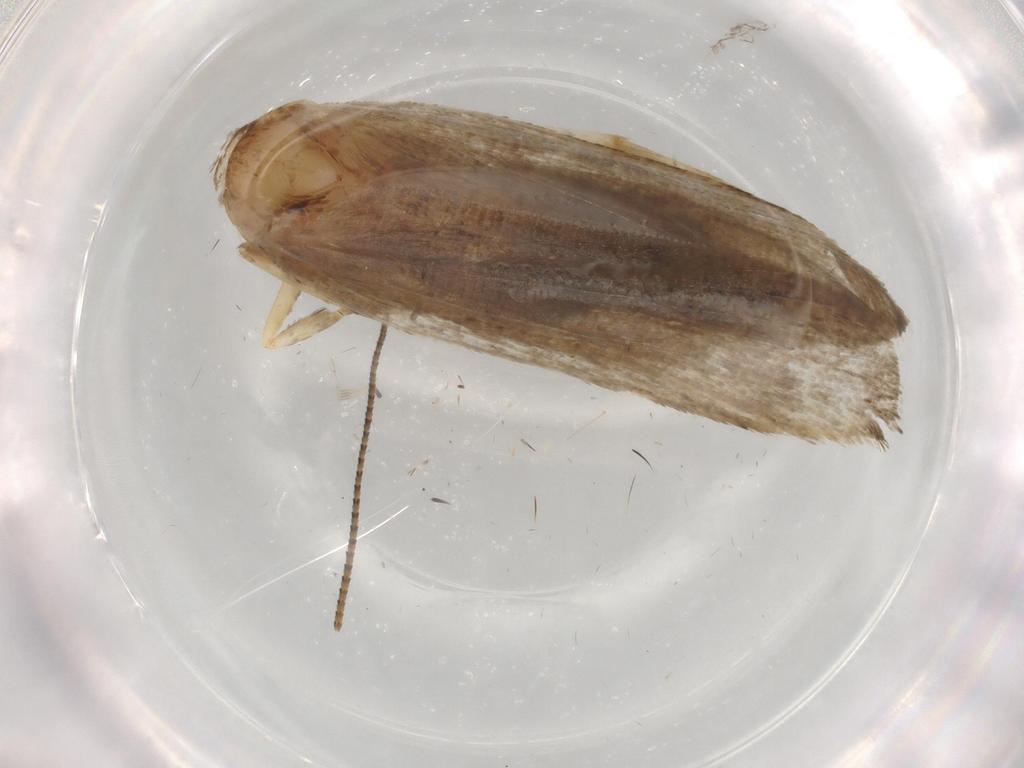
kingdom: Animalia
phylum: Arthropoda
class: Insecta
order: Lepidoptera
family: Autostichidae
